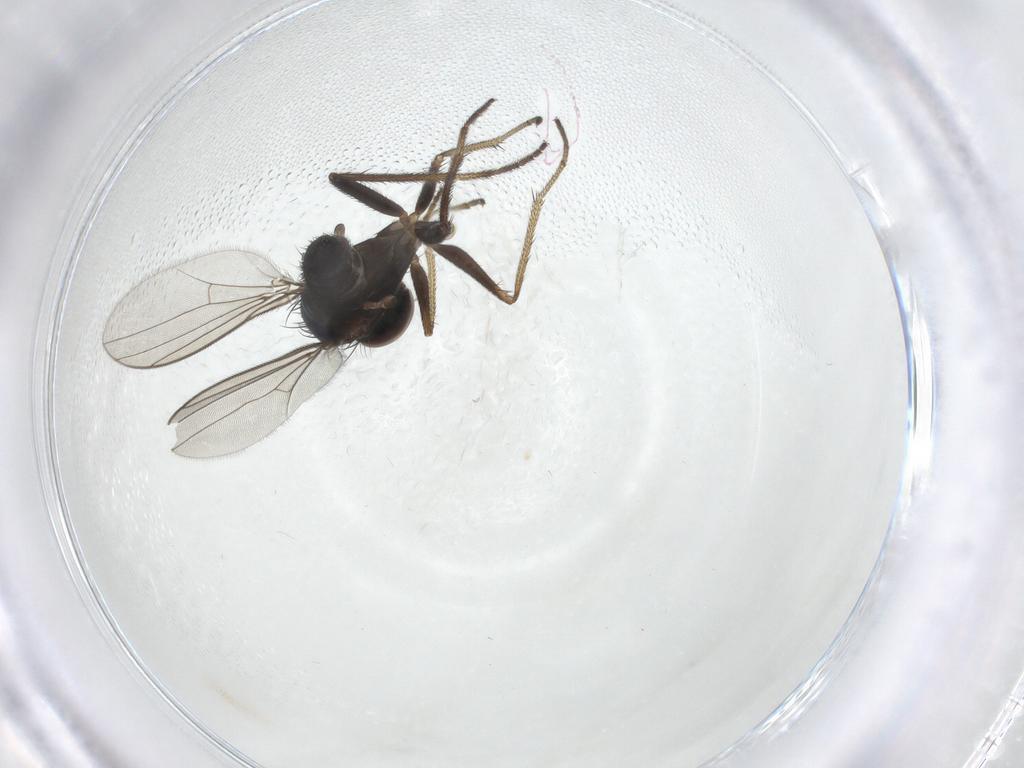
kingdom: Animalia
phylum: Arthropoda
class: Insecta
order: Diptera
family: Dolichopodidae
